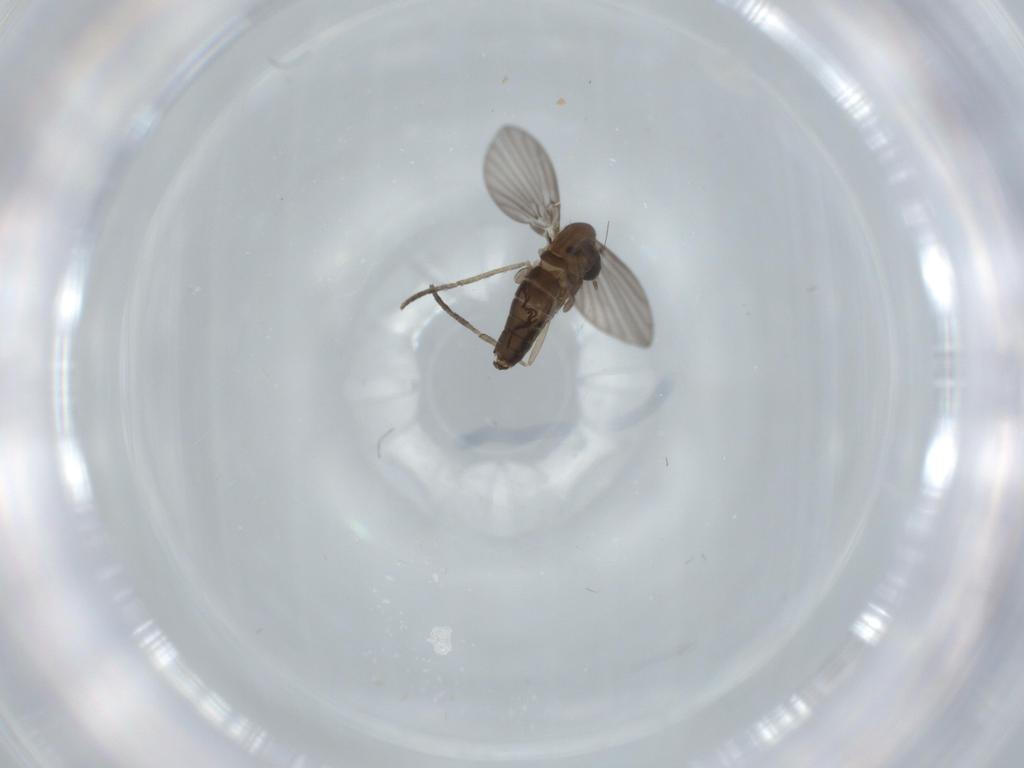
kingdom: Animalia
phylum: Arthropoda
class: Insecta
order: Diptera
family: Psychodidae
